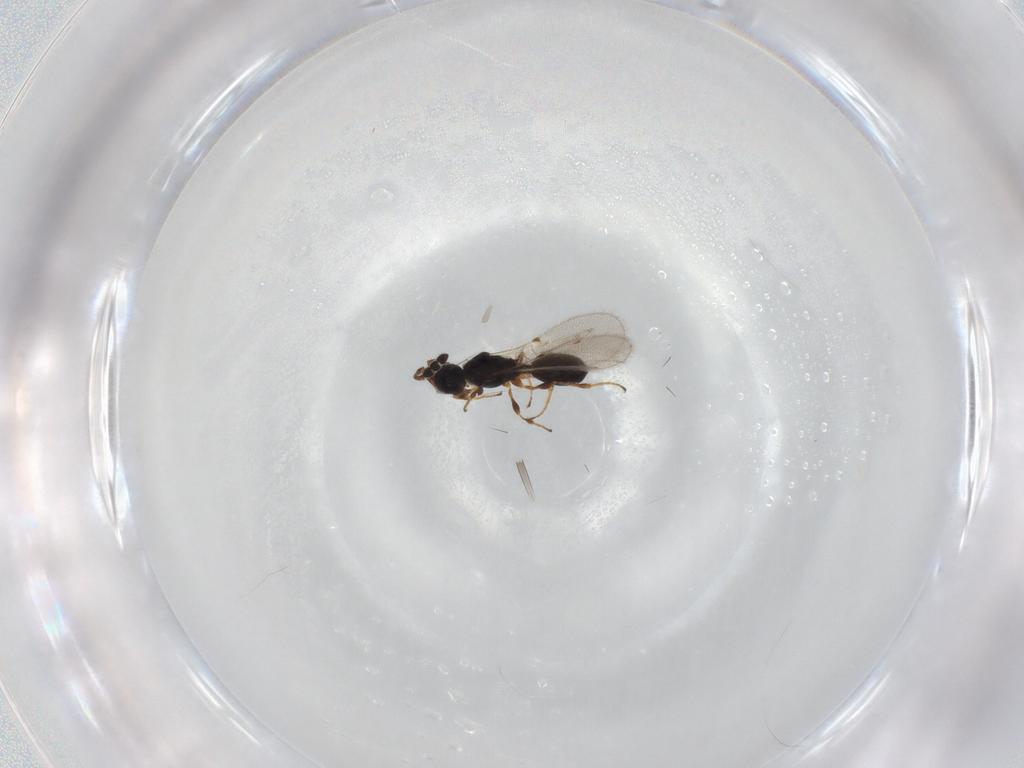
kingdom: Animalia
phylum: Arthropoda
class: Insecta
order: Hymenoptera
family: Diapriidae
